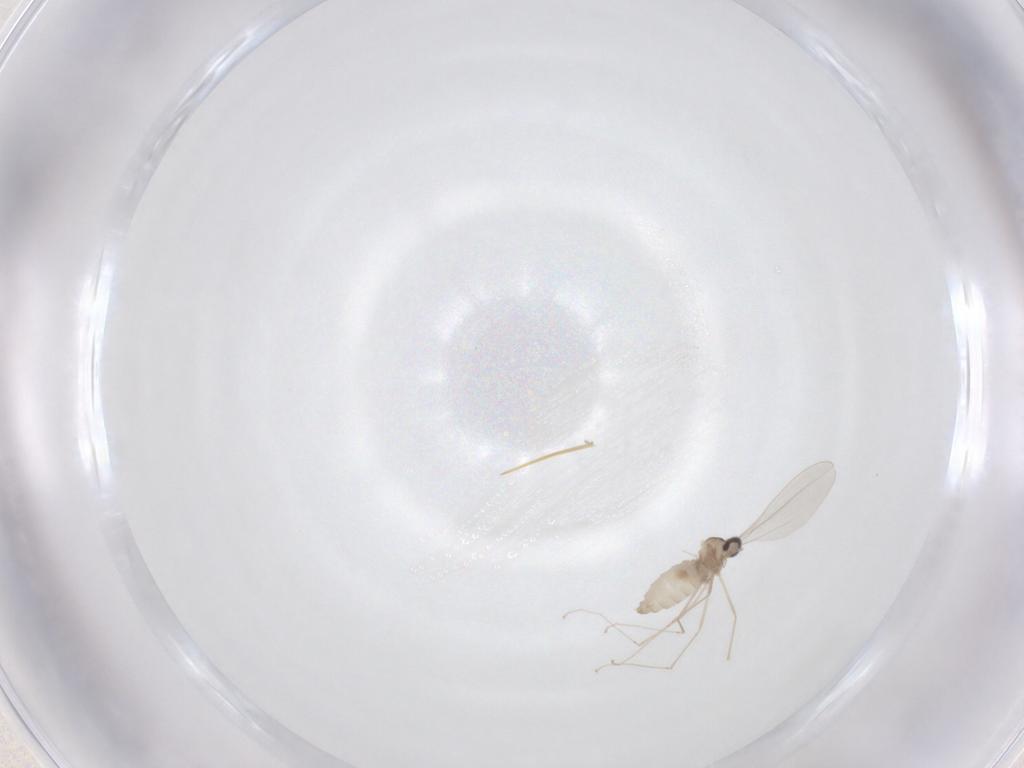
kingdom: Animalia
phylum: Arthropoda
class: Insecta
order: Diptera
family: Cecidomyiidae
